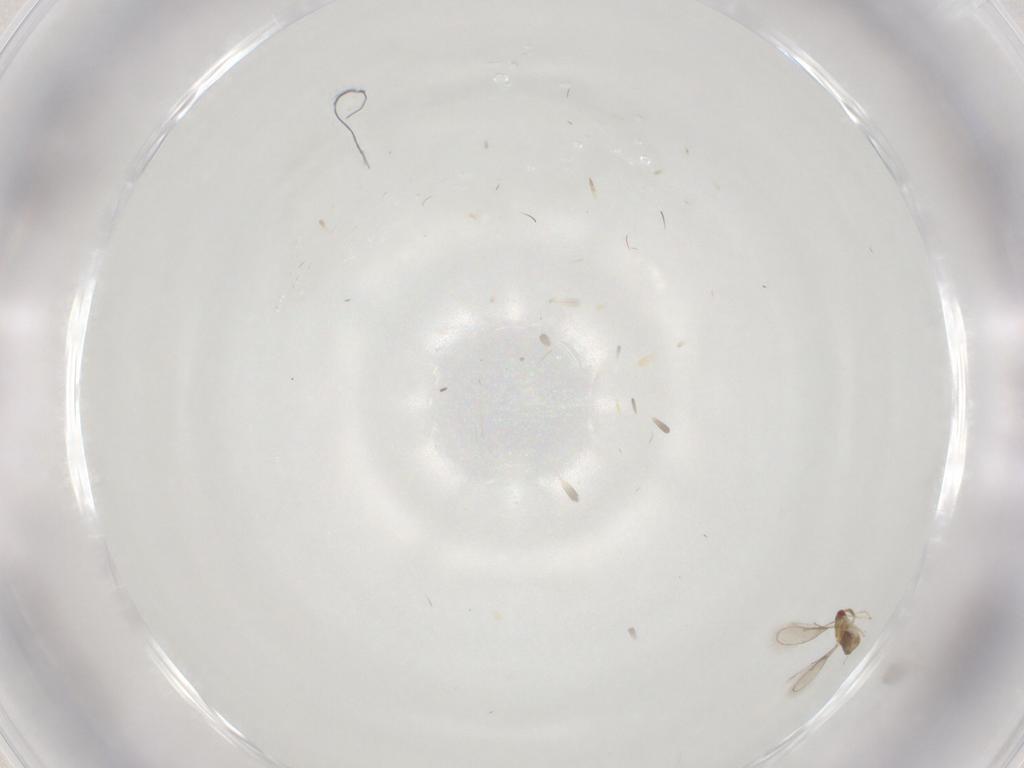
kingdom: Animalia
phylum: Arthropoda
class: Insecta
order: Hymenoptera
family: Aphelinidae
